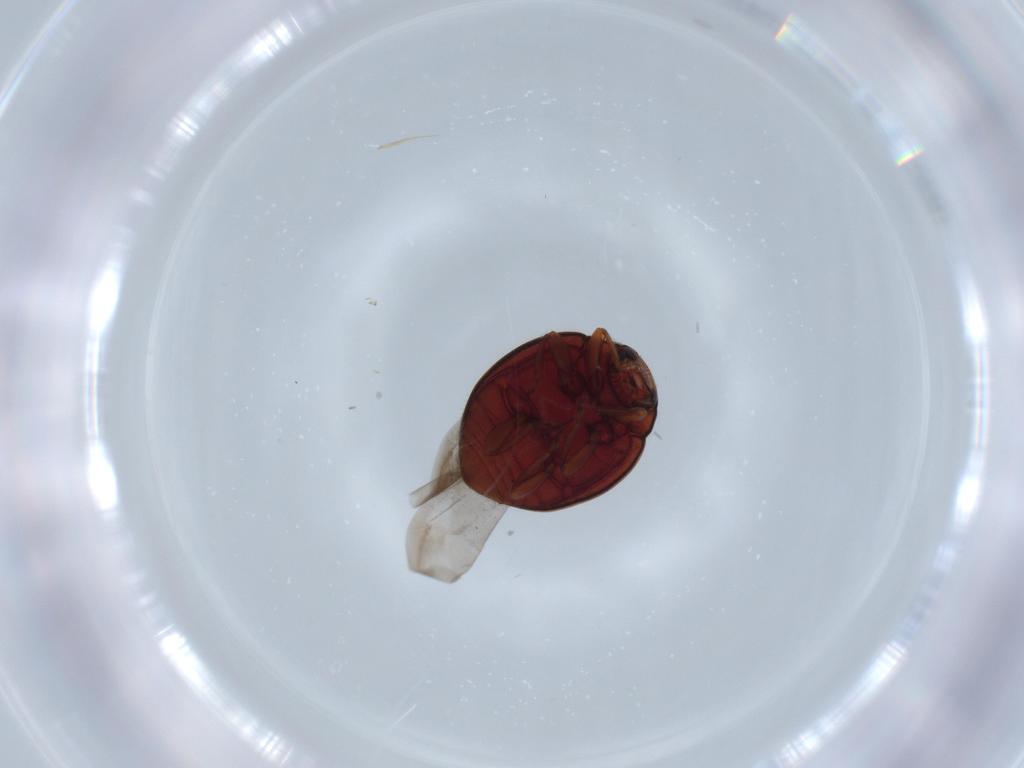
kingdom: Animalia
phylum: Arthropoda
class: Insecta
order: Coleoptera
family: Coccinellidae
